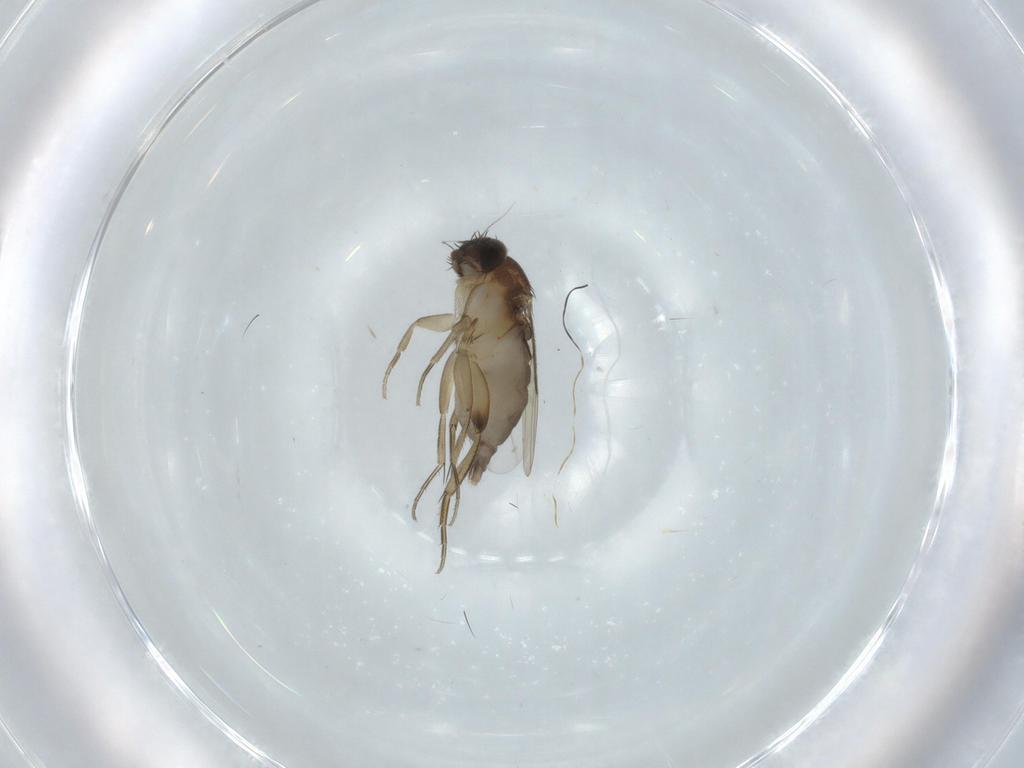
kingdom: Animalia
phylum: Arthropoda
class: Insecta
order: Diptera
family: Phoridae
